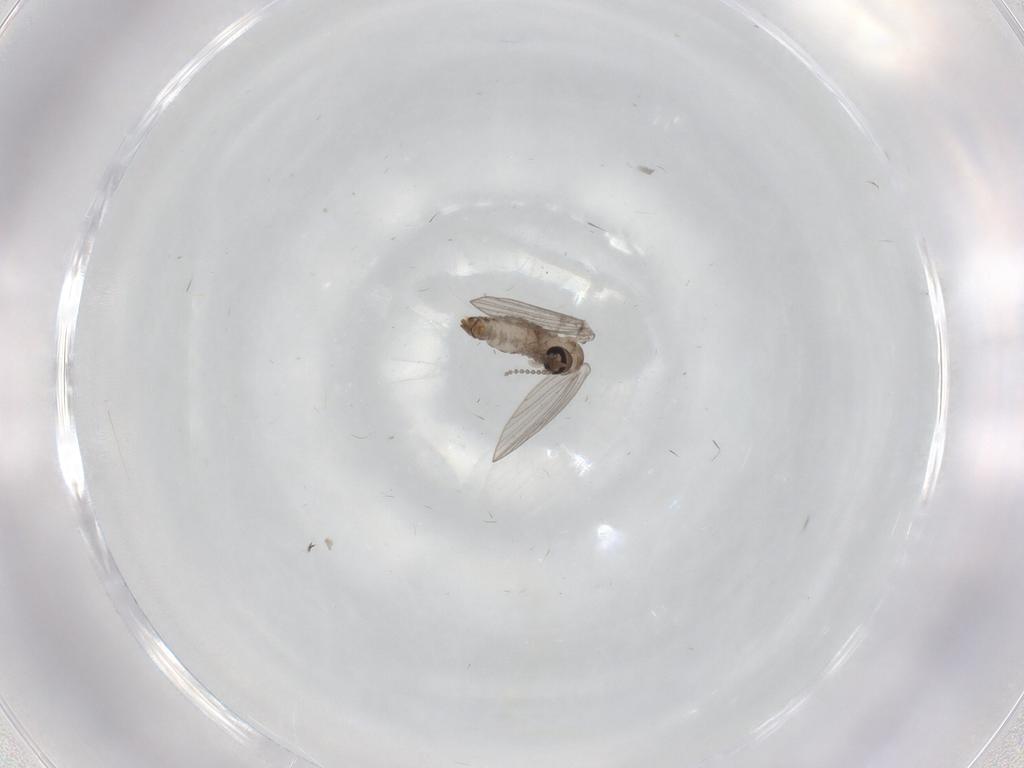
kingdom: Animalia
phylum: Arthropoda
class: Insecta
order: Diptera
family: Psychodidae
